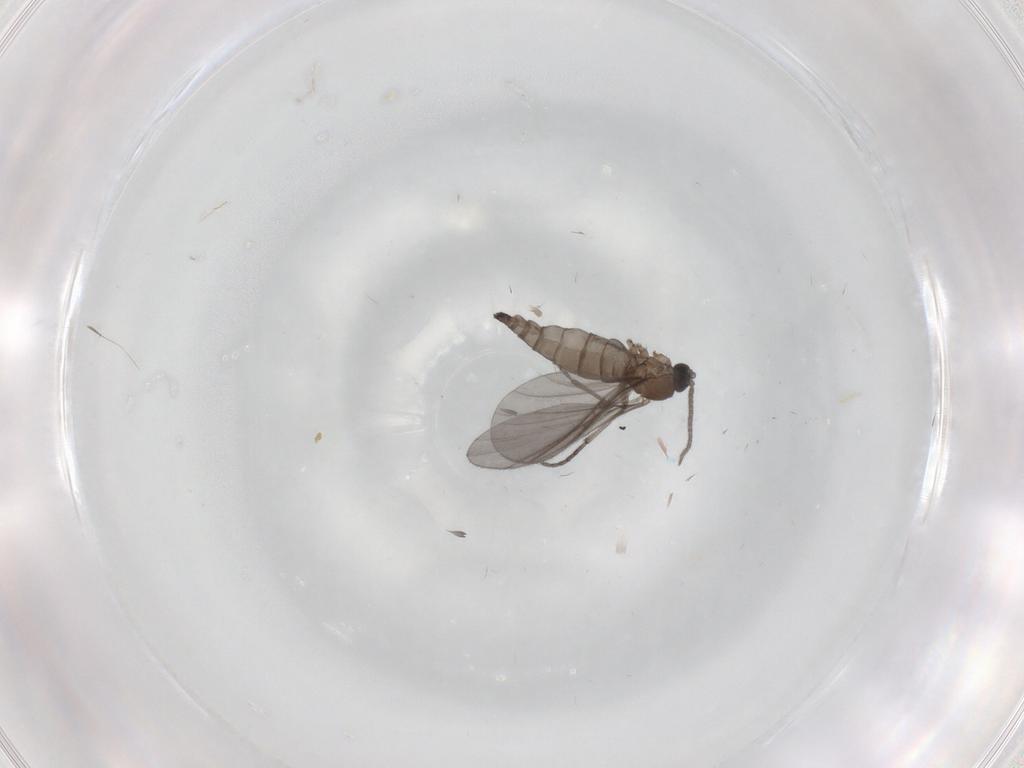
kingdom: Animalia
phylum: Arthropoda
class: Insecta
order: Diptera
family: Sciaridae
